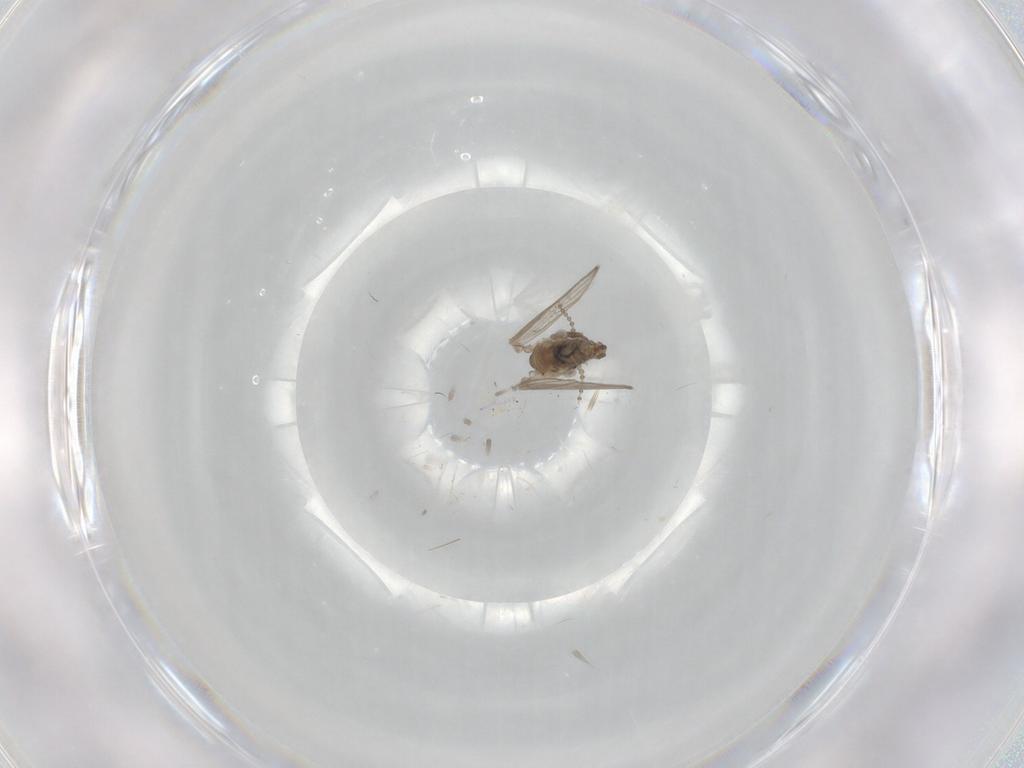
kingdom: Animalia
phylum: Arthropoda
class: Insecta
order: Diptera
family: Psychodidae
